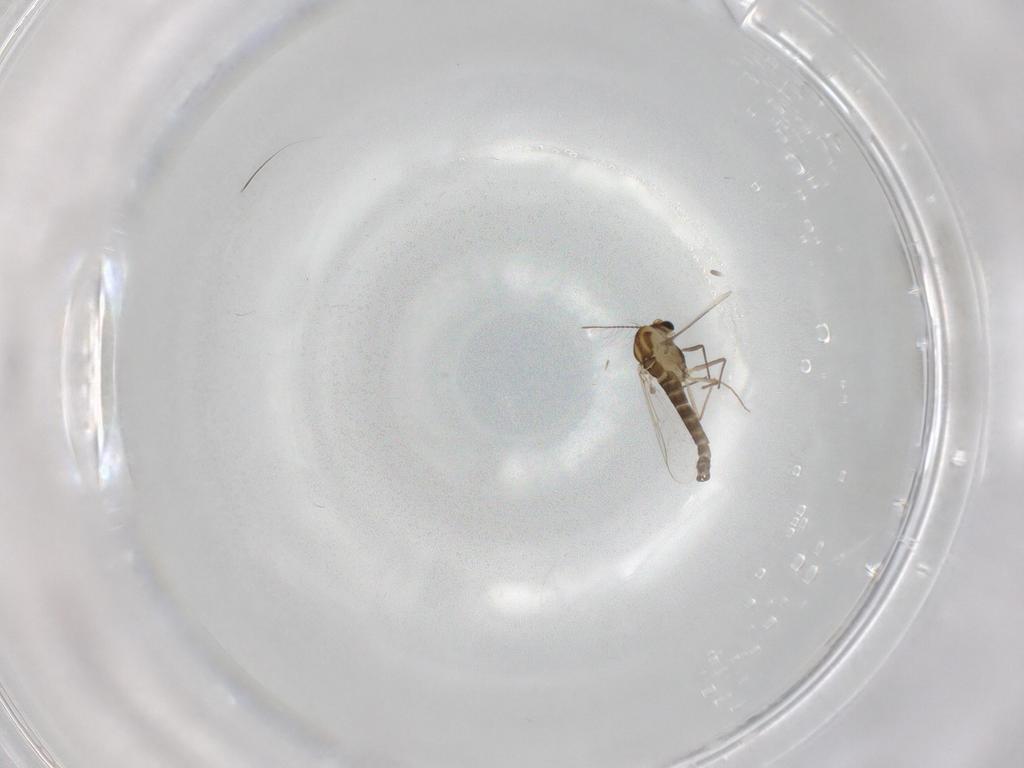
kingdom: Animalia
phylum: Arthropoda
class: Insecta
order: Diptera
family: Chironomidae
